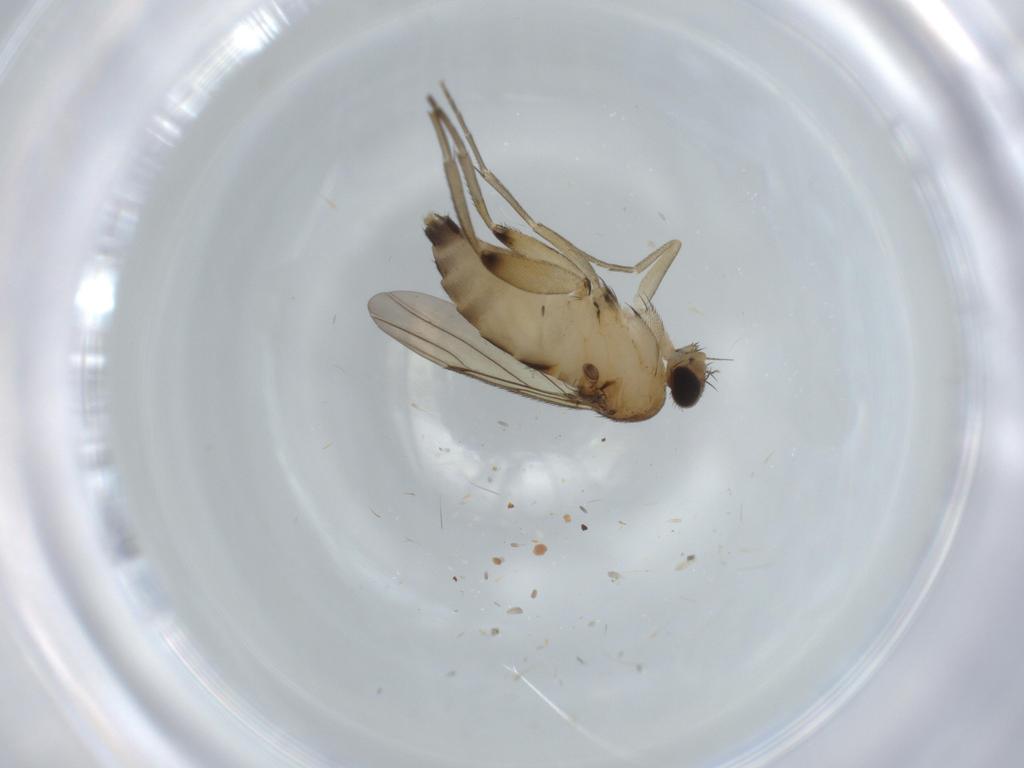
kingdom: Animalia
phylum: Arthropoda
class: Insecta
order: Diptera
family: Phoridae
